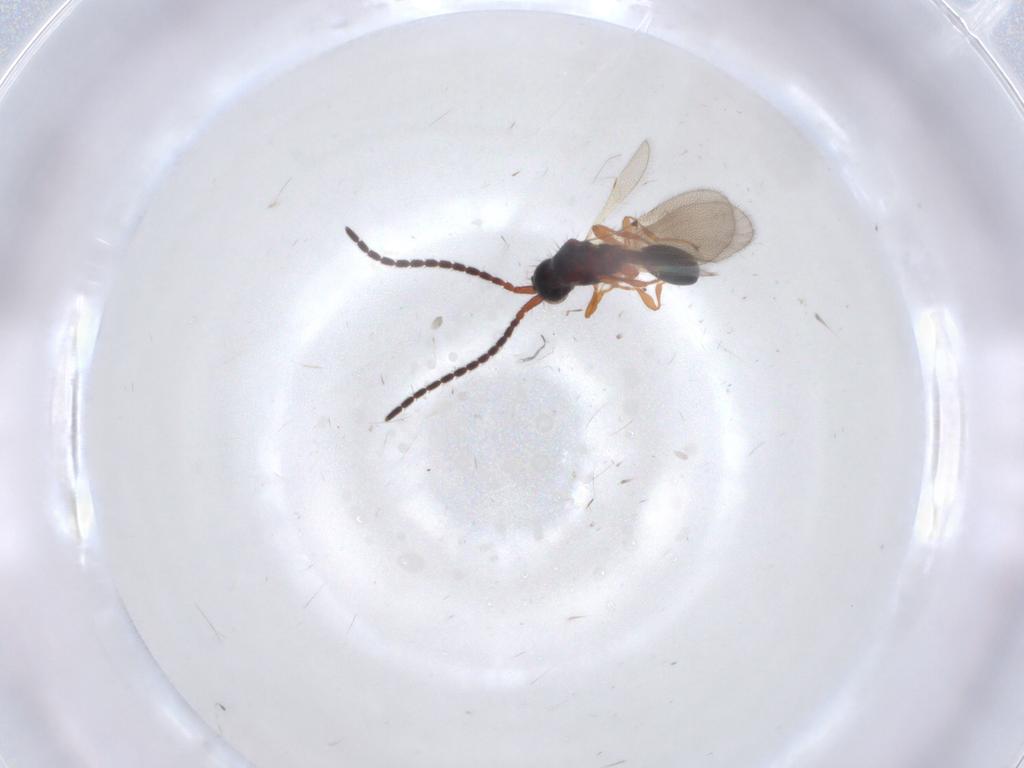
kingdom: Animalia
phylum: Arthropoda
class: Insecta
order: Hymenoptera
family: Diapriidae
